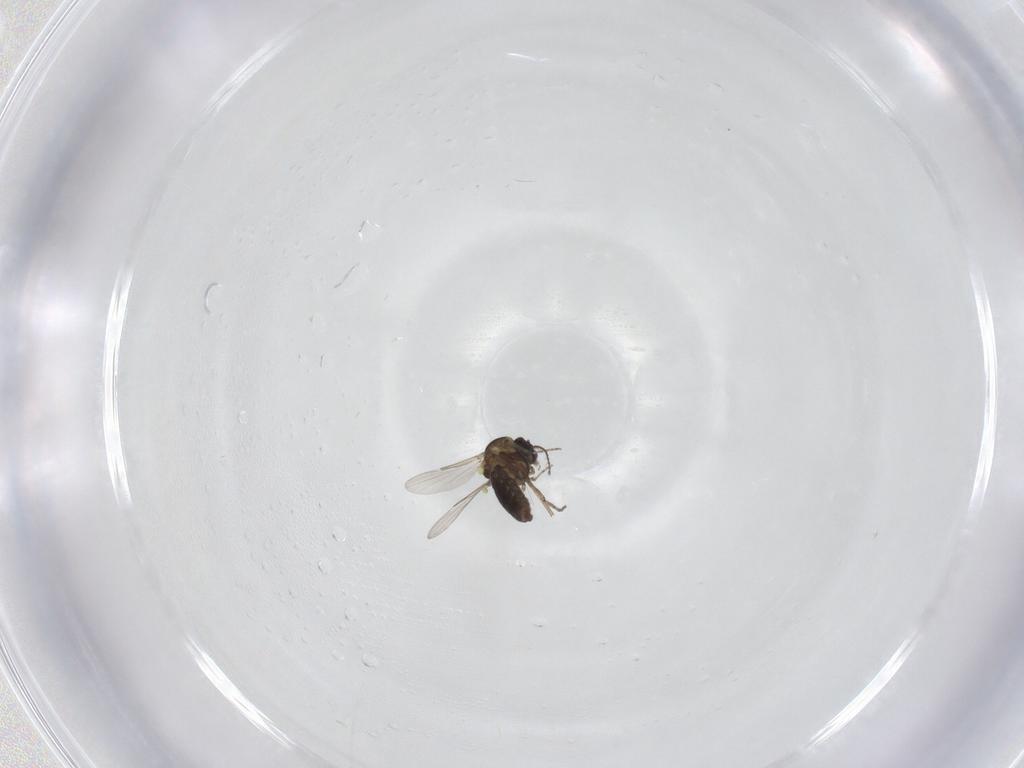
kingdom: Animalia
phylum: Arthropoda
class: Insecta
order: Diptera
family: Ceratopogonidae
